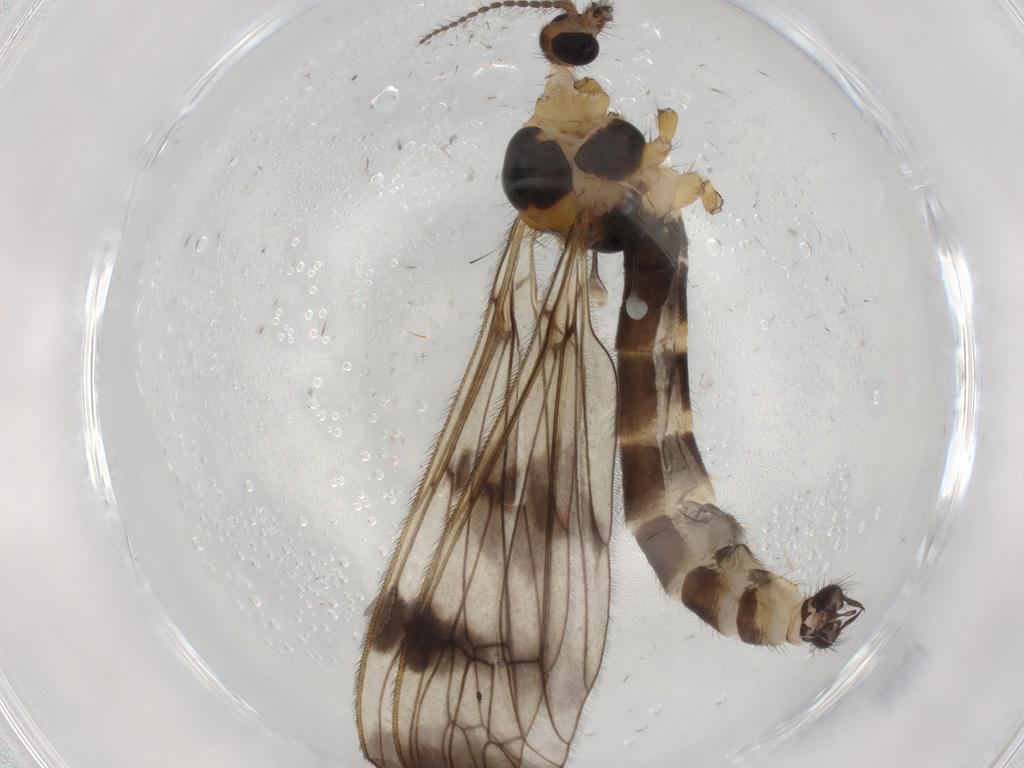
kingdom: Animalia
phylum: Arthropoda
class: Insecta
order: Diptera
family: Limoniidae
